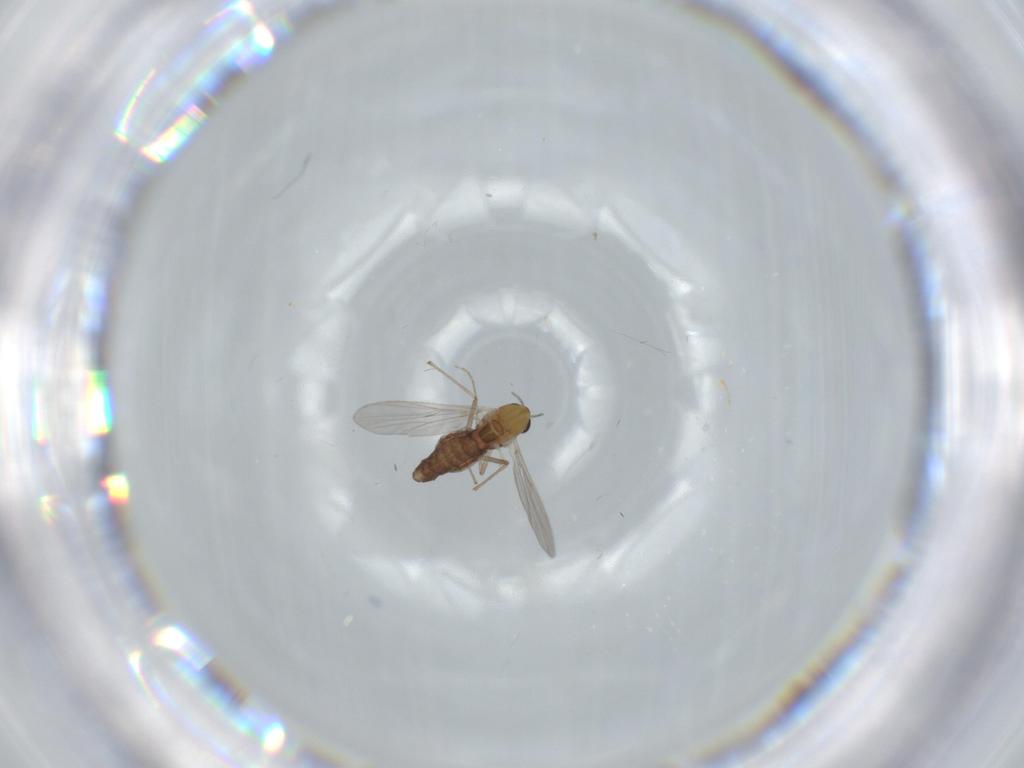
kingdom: Animalia
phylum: Arthropoda
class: Insecta
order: Diptera
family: Chironomidae
